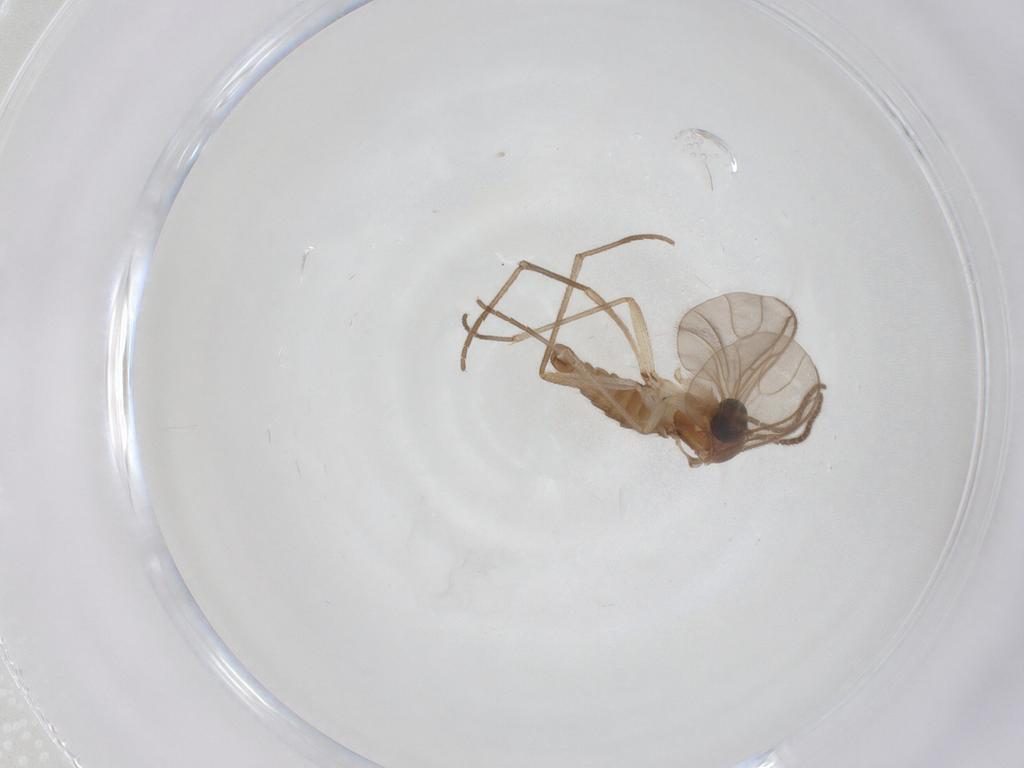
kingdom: Animalia
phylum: Arthropoda
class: Insecta
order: Diptera
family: Sciaridae
